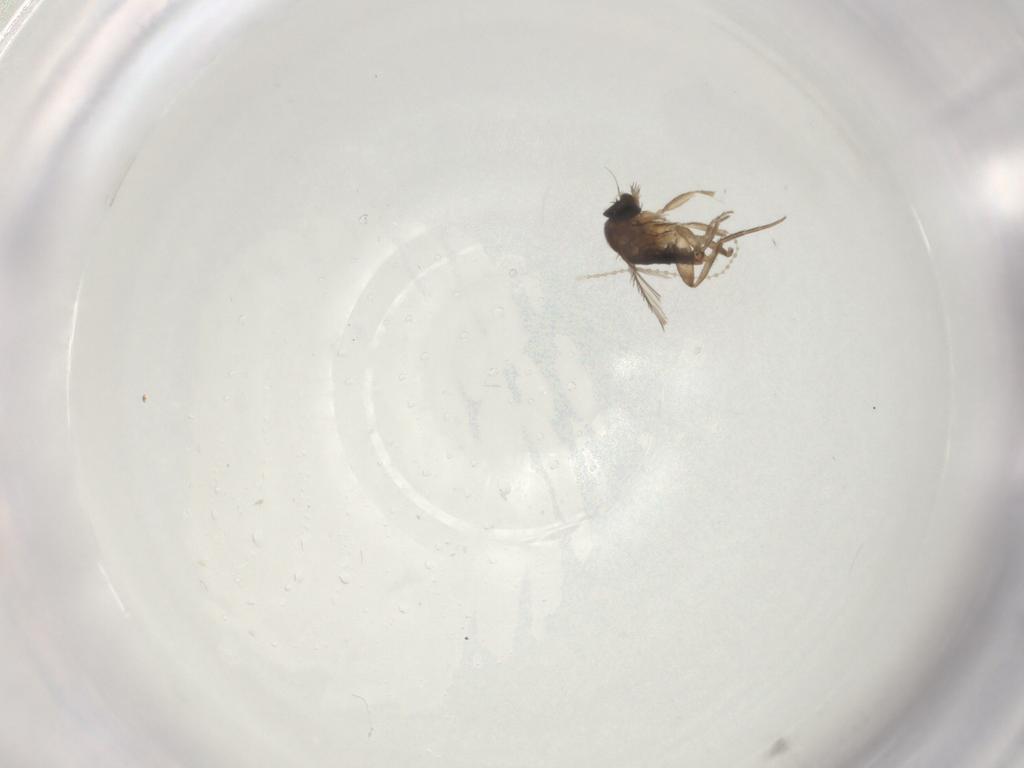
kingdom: Animalia
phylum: Arthropoda
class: Insecta
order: Diptera
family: Phoridae
